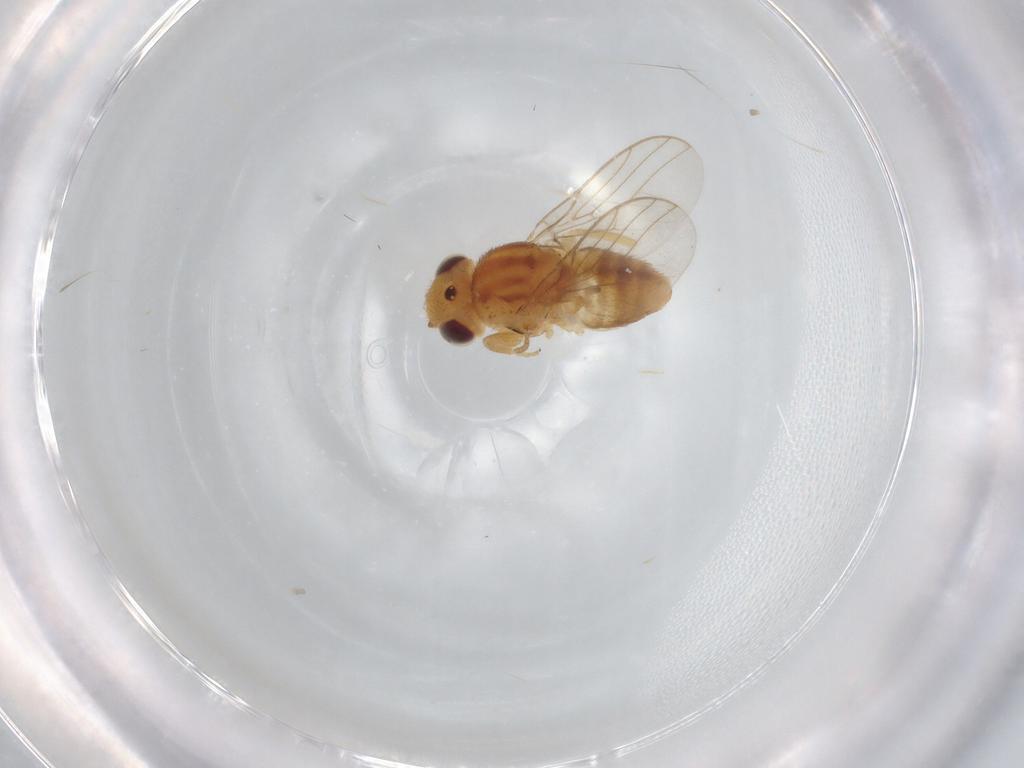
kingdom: Animalia
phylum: Arthropoda
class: Insecta
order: Diptera
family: Chloropidae
